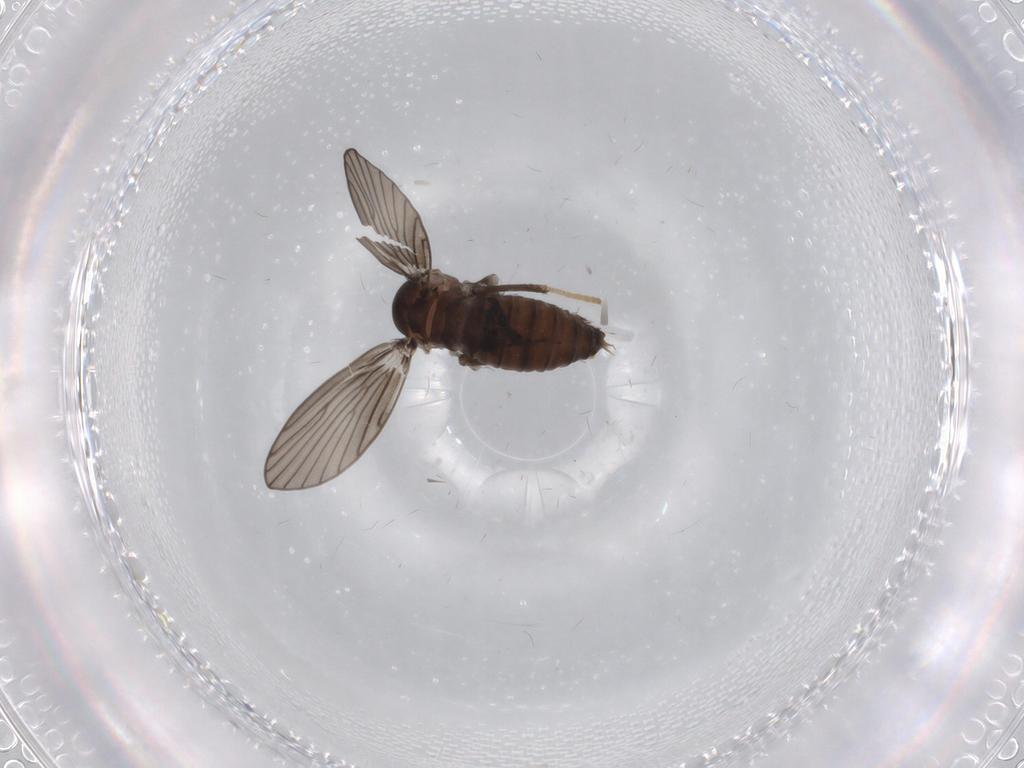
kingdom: Animalia
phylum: Arthropoda
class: Insecta
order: Diptera
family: Psychodidae
